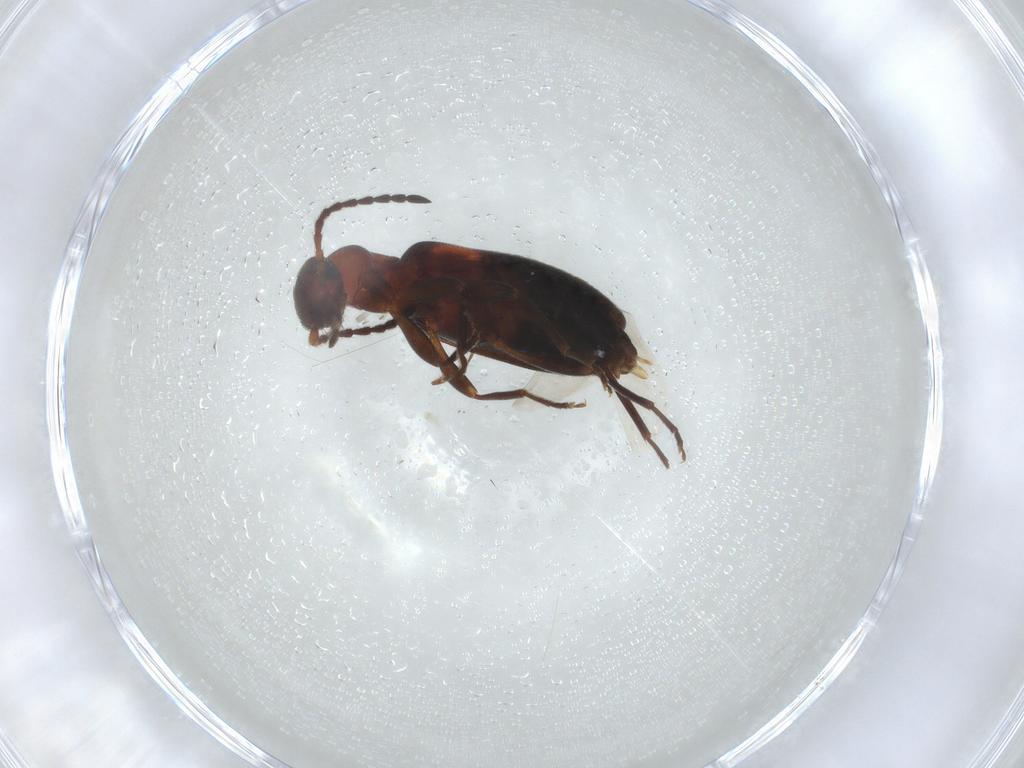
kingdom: Animalia
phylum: Arthropoda
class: Insecta
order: Coleoptera
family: Anthicidae
